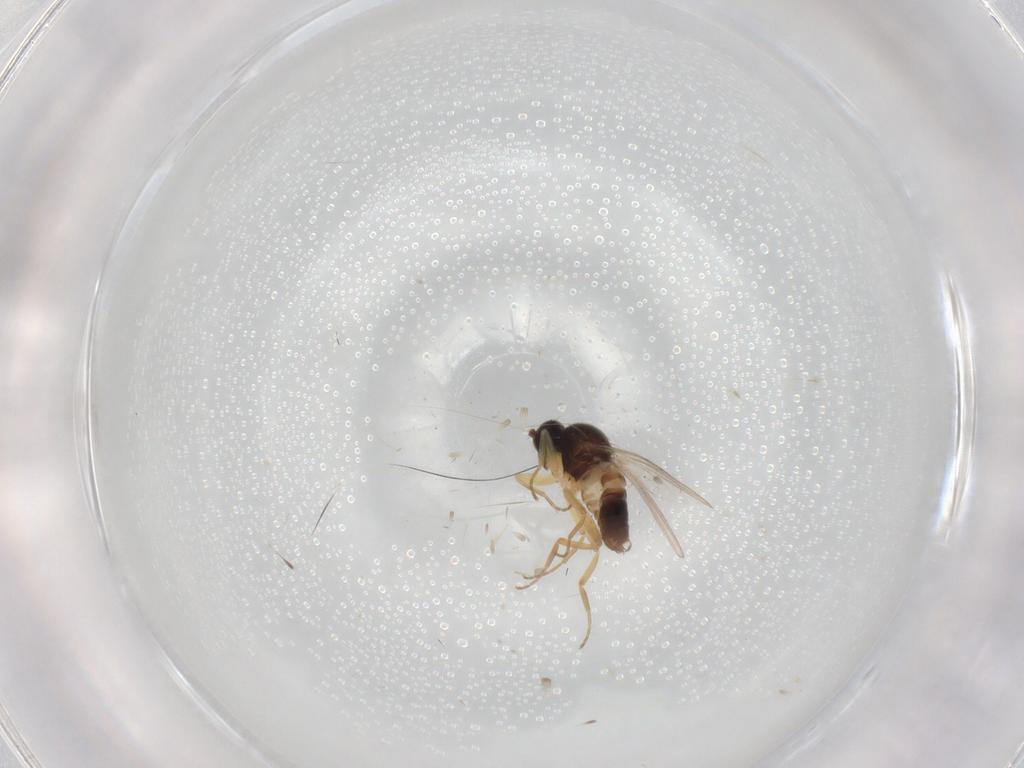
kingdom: Animalia
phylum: Arthropoda
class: Insecta
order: Diptera
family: Hybotidae
